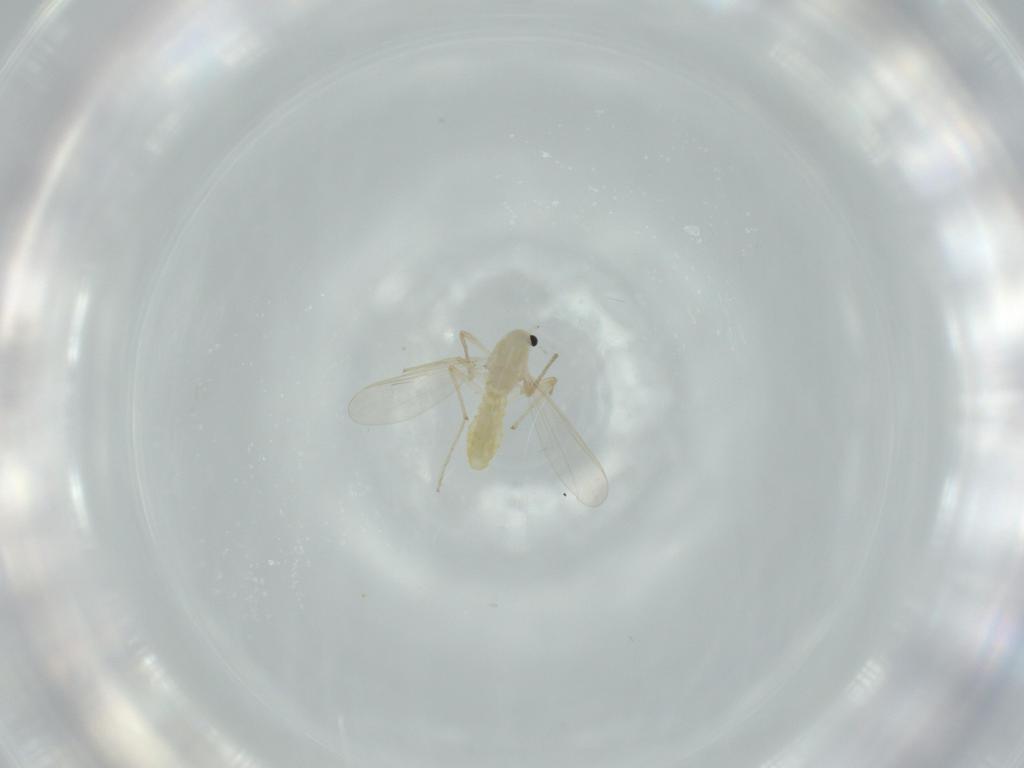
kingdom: Animalia
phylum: Arthropoda
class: Insecta
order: Diptera
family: Chironomidae
